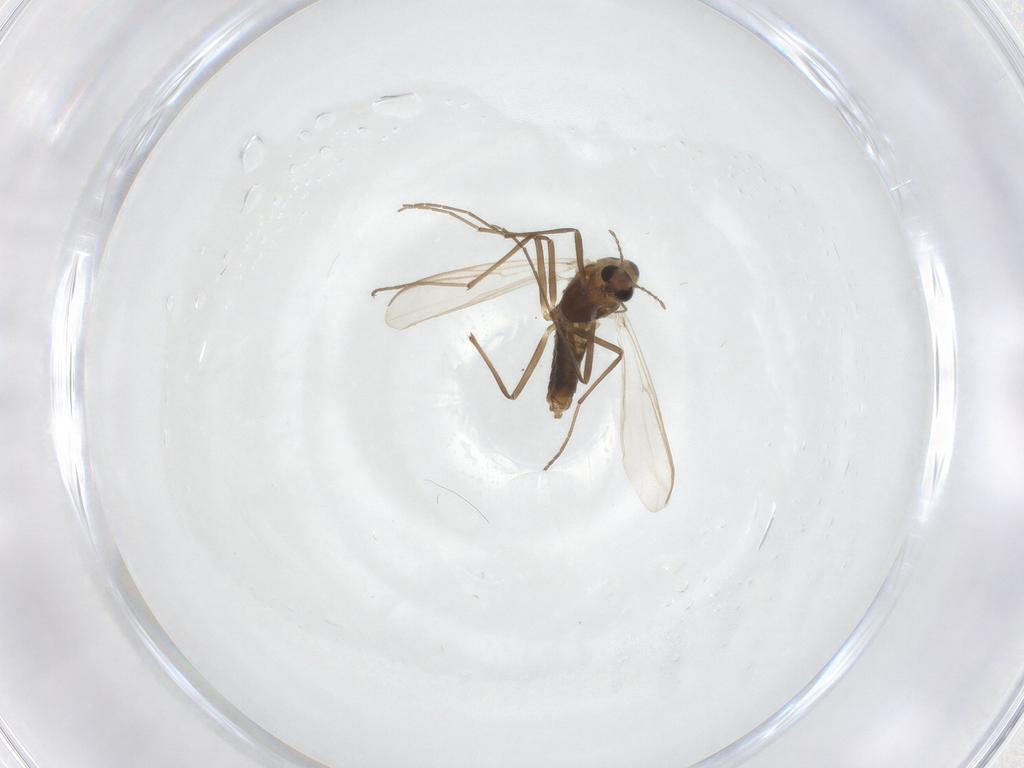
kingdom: Animalia
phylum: Arthropoda
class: Insecta
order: Diptera
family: Chironomidae
